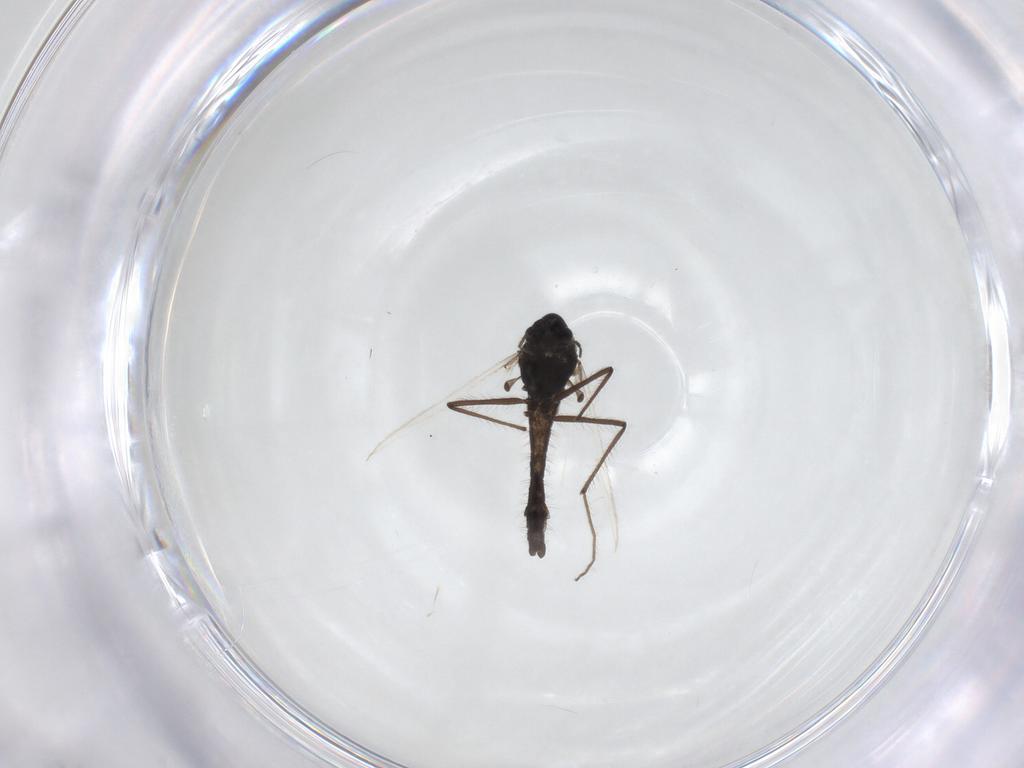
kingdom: Animalia
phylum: Arthropoda
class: Insecta
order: Diptera
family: Chironomidae
